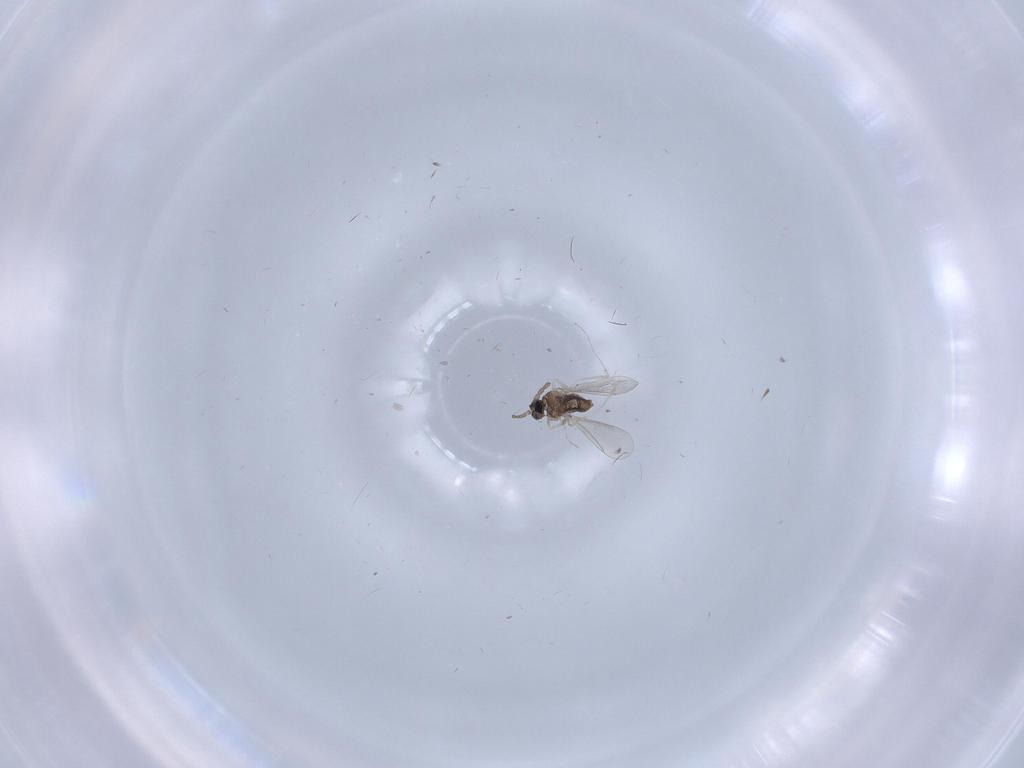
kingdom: Animalia
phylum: Arthropoda
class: Insecta
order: Diptera
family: Cecidomyiidae
